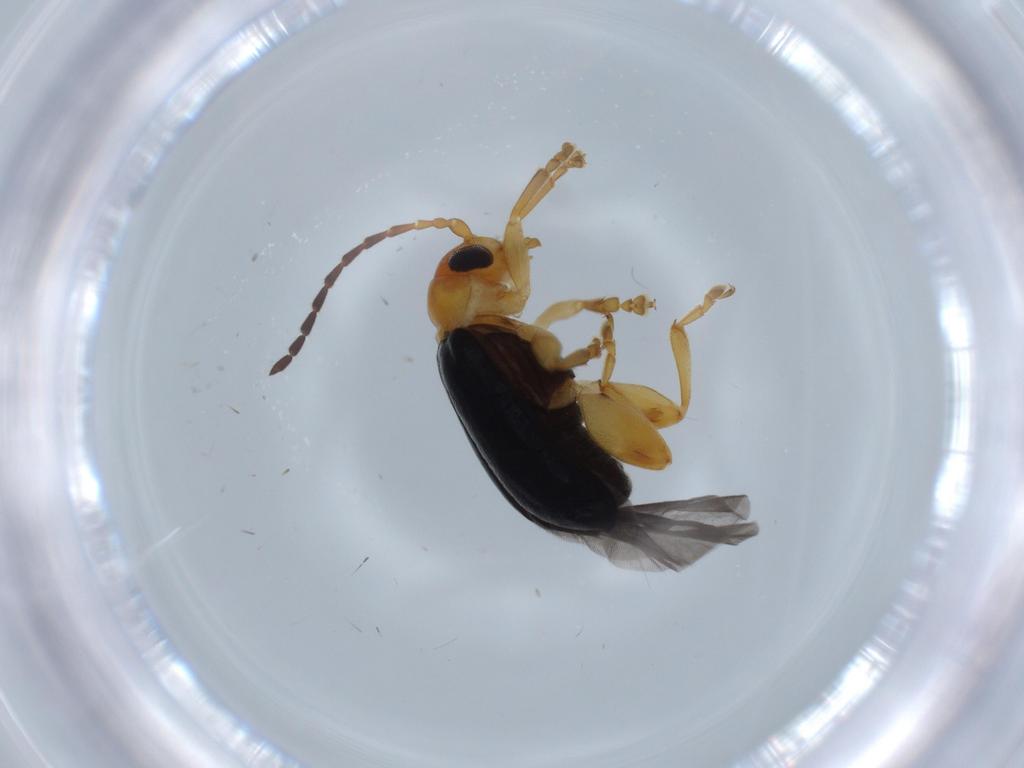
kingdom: Animalia
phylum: Arthropoda
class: Insecta
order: Coleoptera
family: Chrysomelidae
